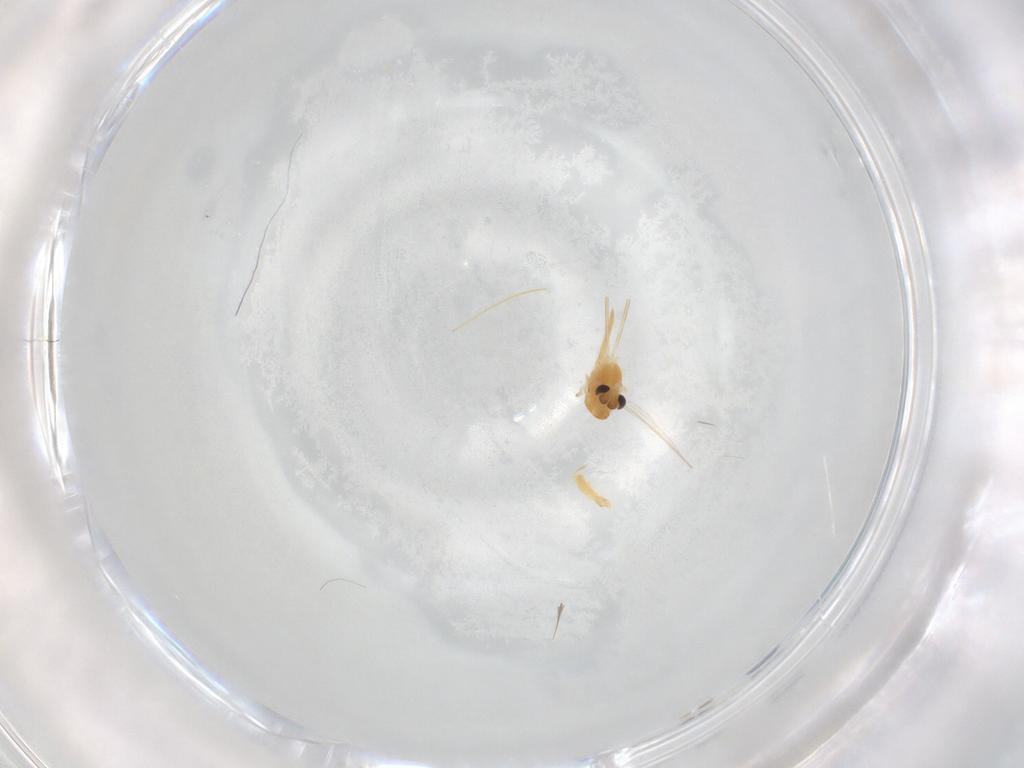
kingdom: Animalia
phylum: Arthropoda
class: Insecta
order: Diptera
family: Chironomidae
